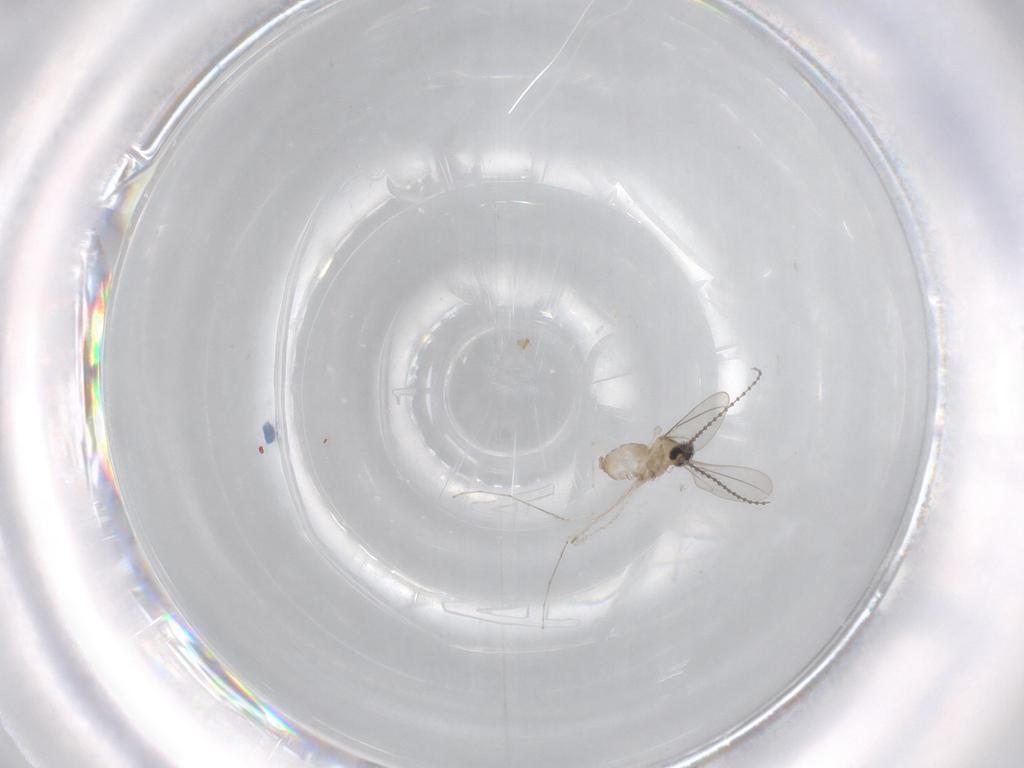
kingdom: Animalia
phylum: Arthropoda
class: Insecta
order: Diptera
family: Cecidomyiidae
